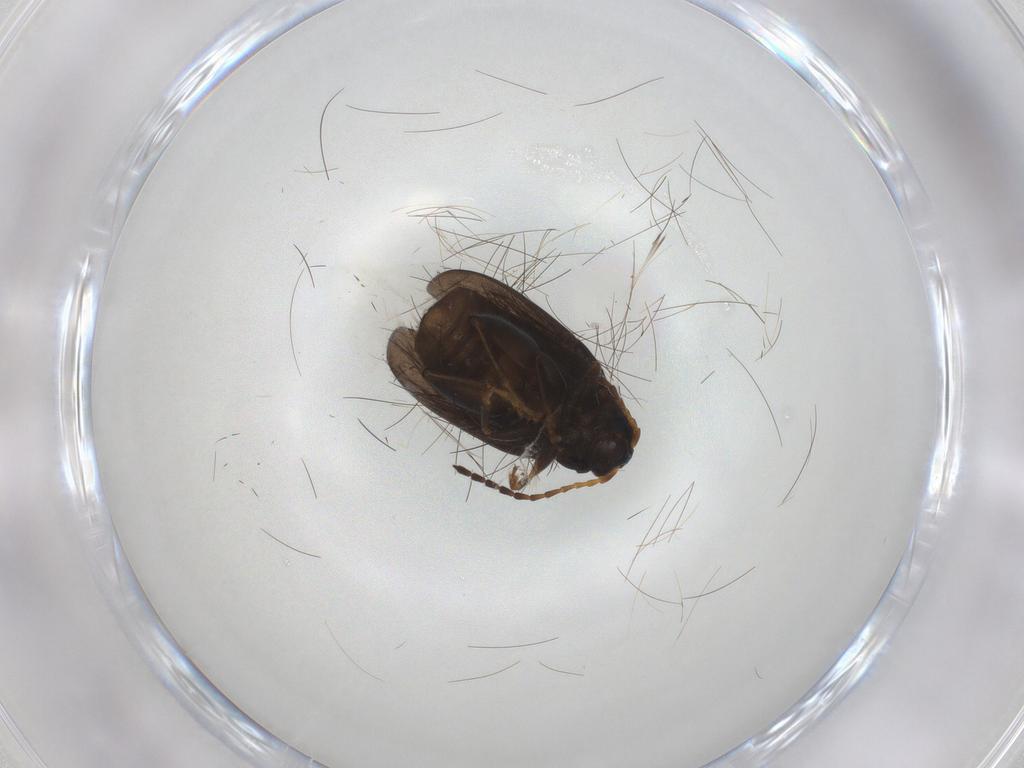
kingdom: Animalia
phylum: Arthropoda
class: Insecta
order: Coleoptera
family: Chrysomelidae
